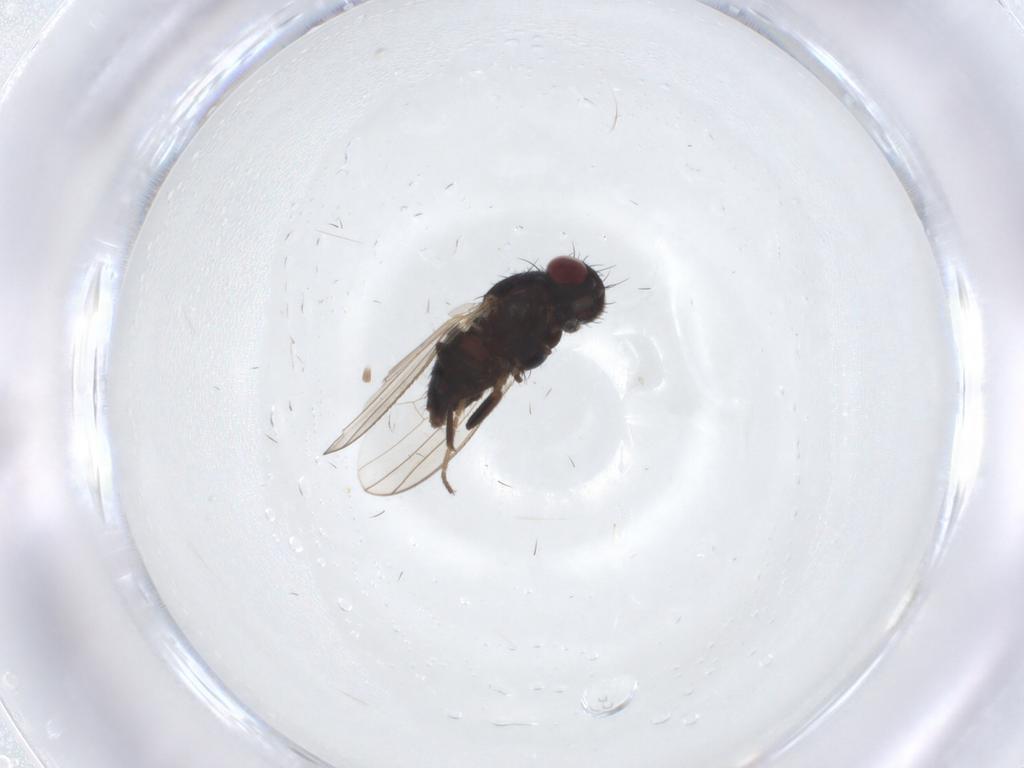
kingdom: Animalia
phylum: Arthropoda
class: Insecta
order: Diptera
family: Carnidae
